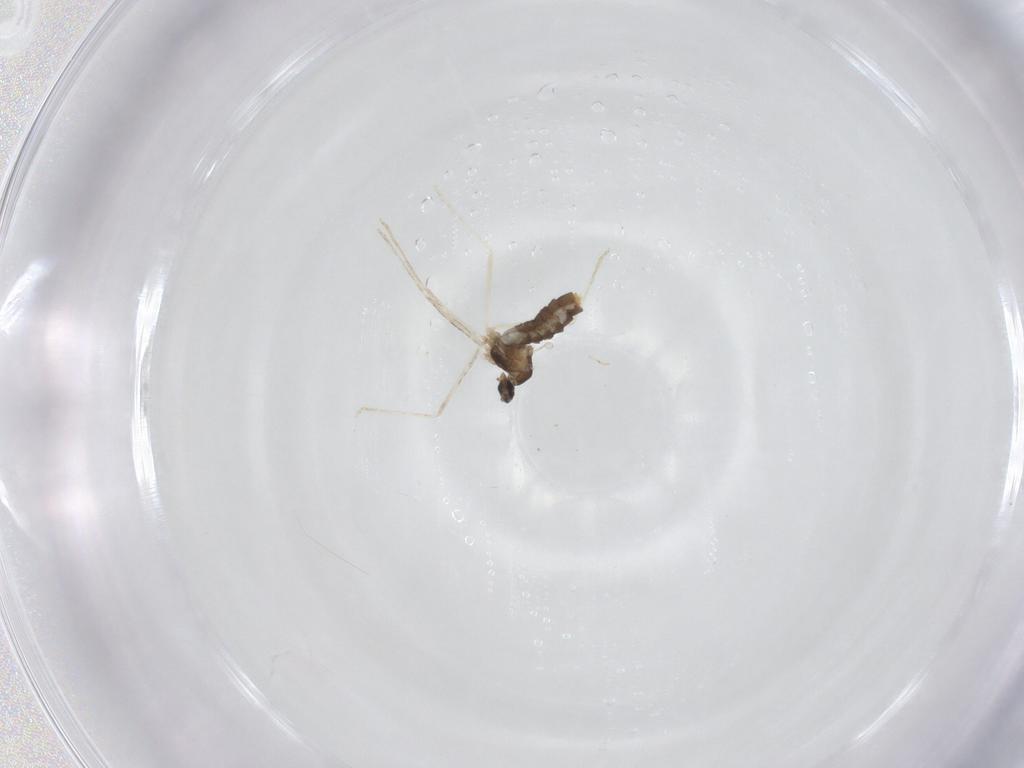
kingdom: Animalia
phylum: Arthropoda
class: Insecta
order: Diptera
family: Cecidomyiidae
